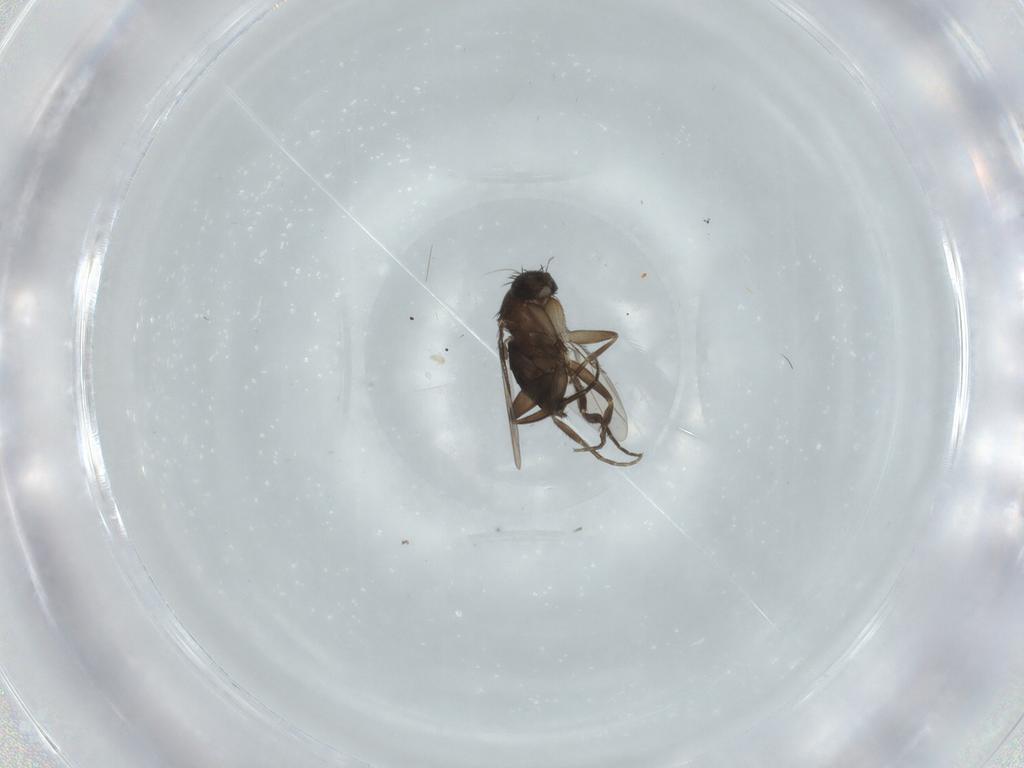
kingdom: Animalia
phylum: Arthropoda
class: Insecta
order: Diptera
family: Phoridae
